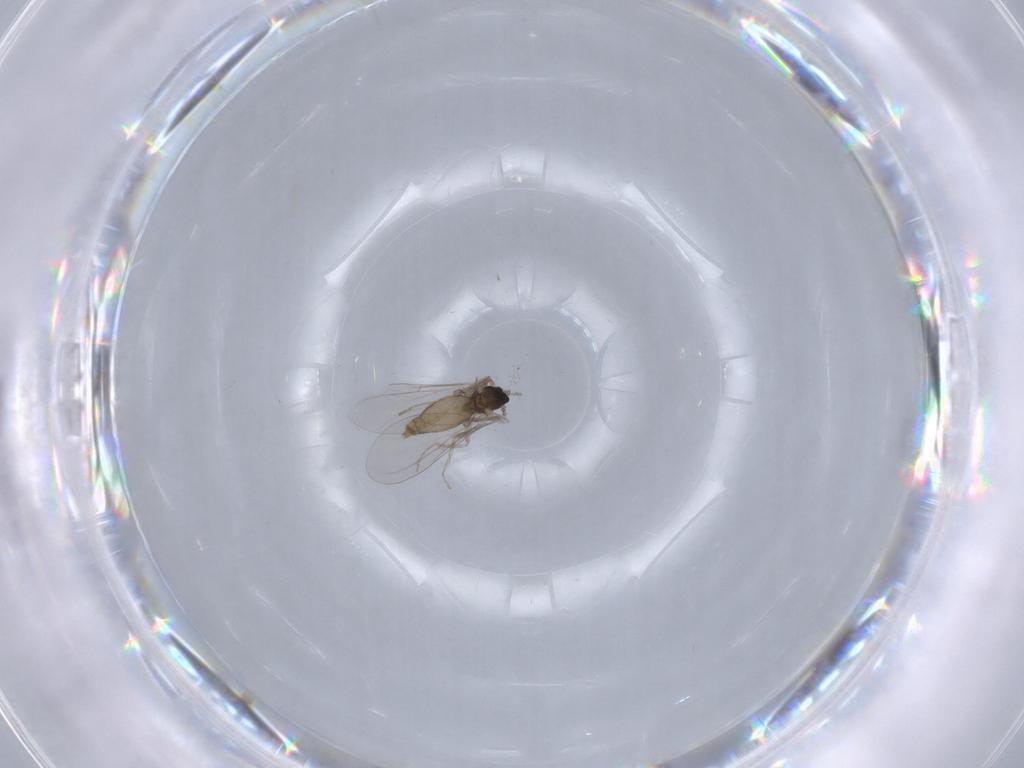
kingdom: Animalia
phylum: Arthropoda
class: Insecta
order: Diptera
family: Cecidomyiidae
